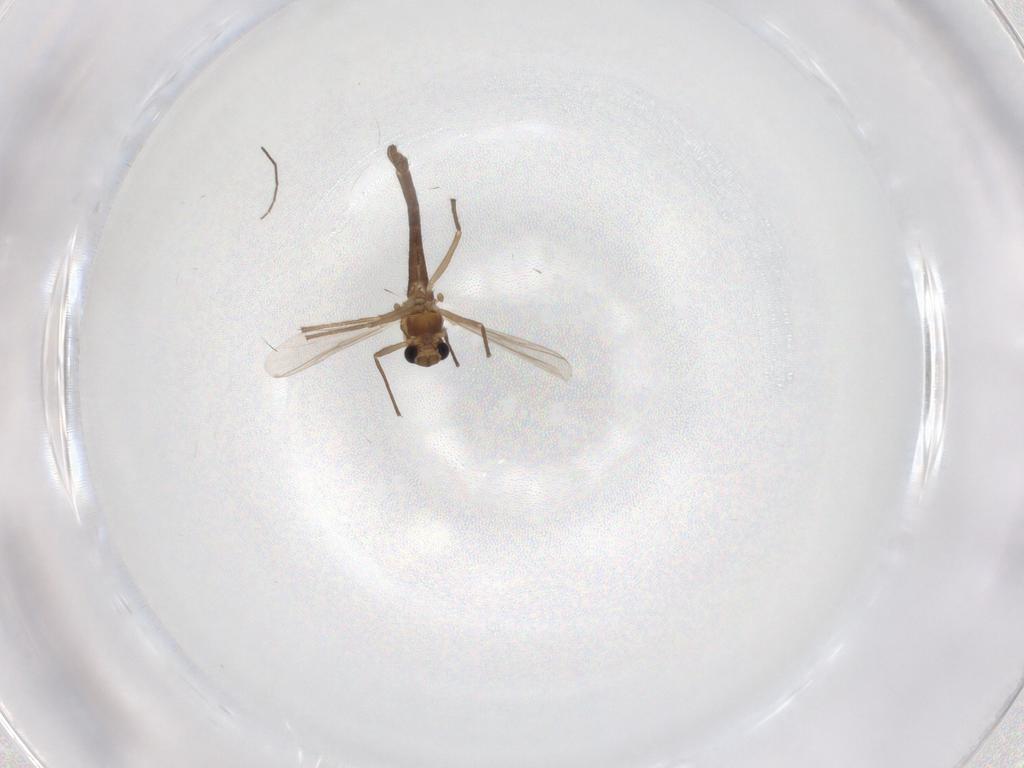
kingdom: Animalia
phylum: Arthropoda
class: Insecta
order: Diptera
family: Chironomidae
